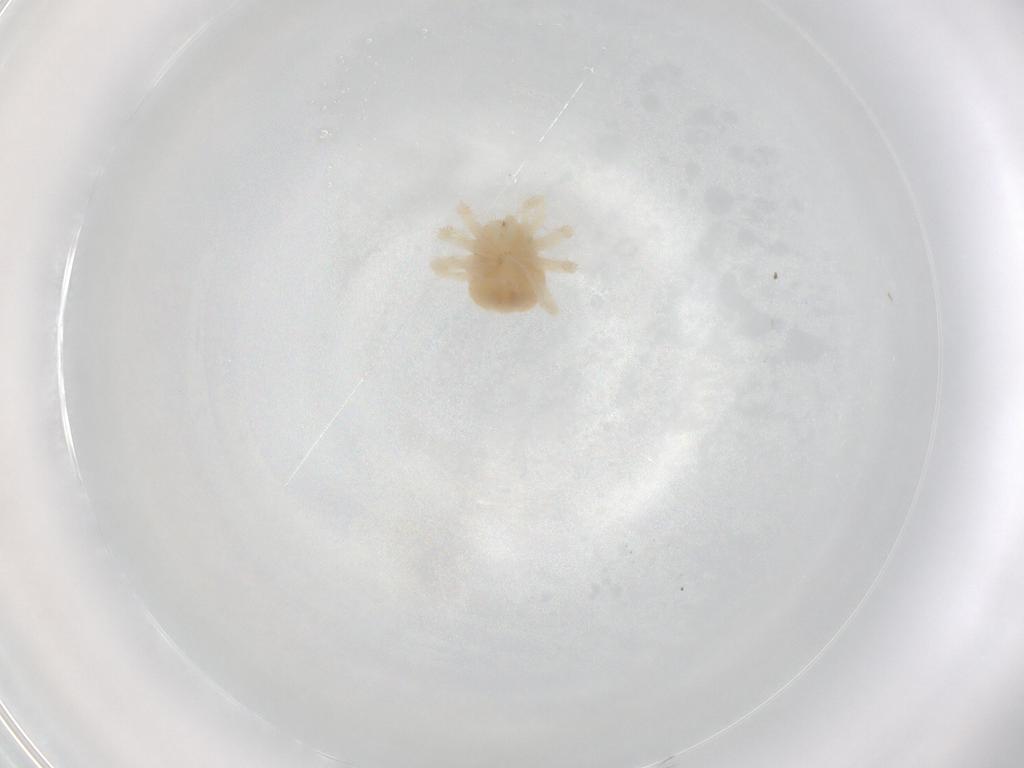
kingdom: Animalia
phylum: Arthropoda
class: Arachnida
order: Trombidiformes
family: Anystidae
